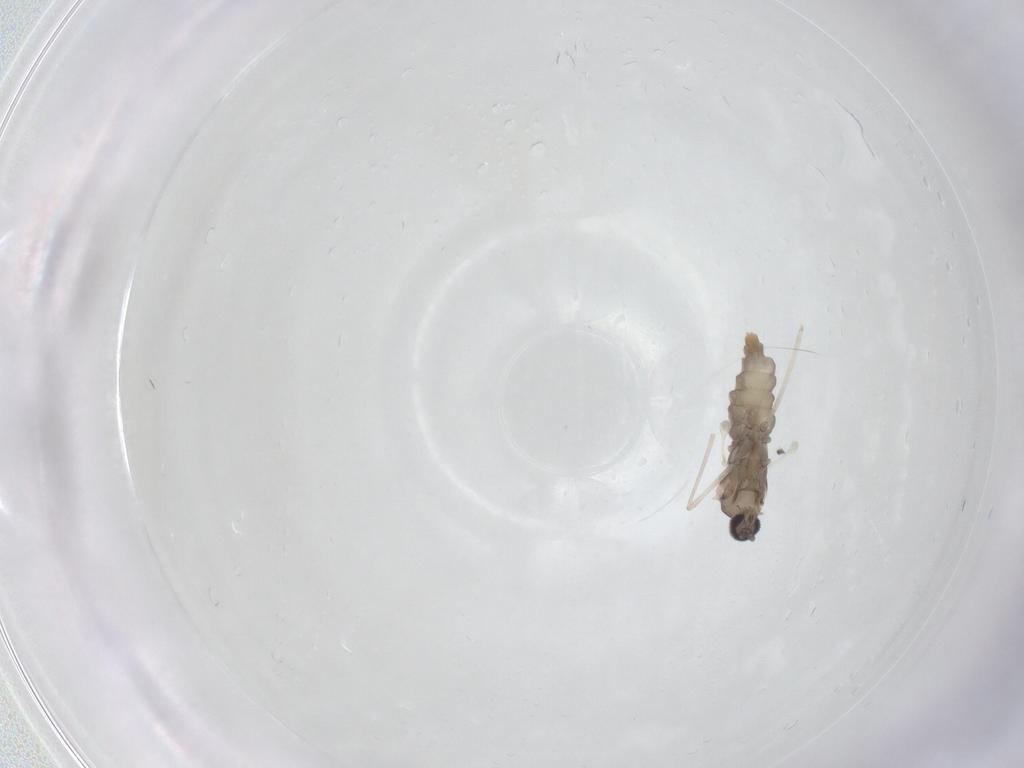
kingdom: Animalia
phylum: Arthropoda
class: Insecta
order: Diptera
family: Cecidomyiidae
